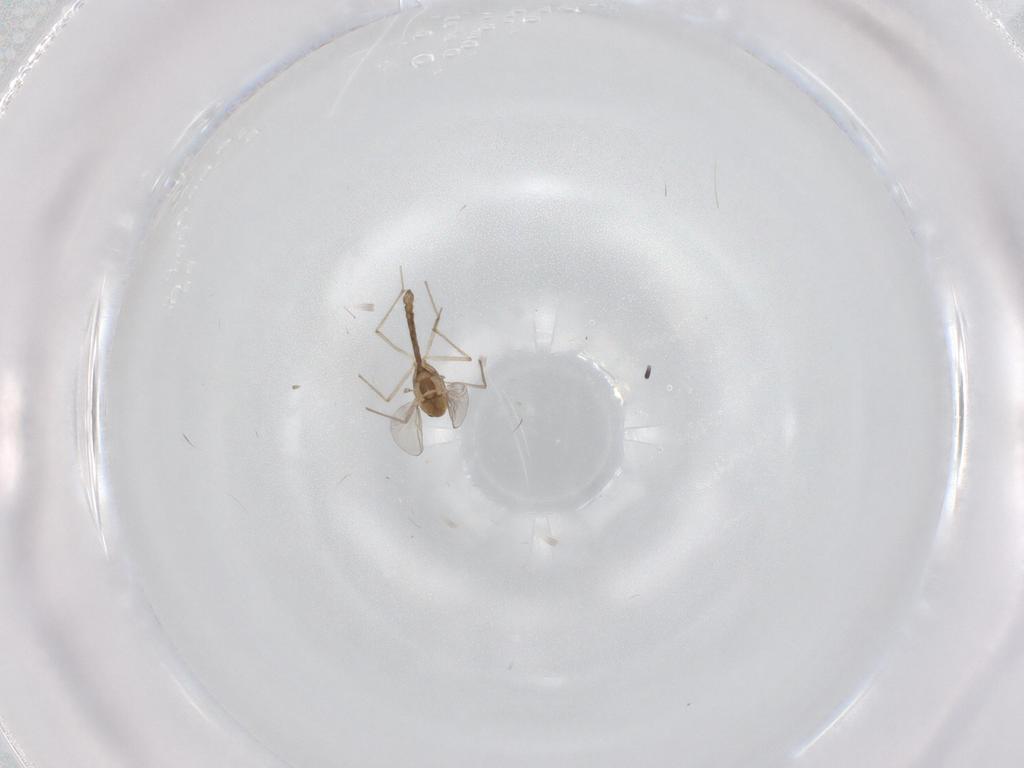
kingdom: Animalia
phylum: Arthropoda
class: Insecta
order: Diptera
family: Chironomidae
